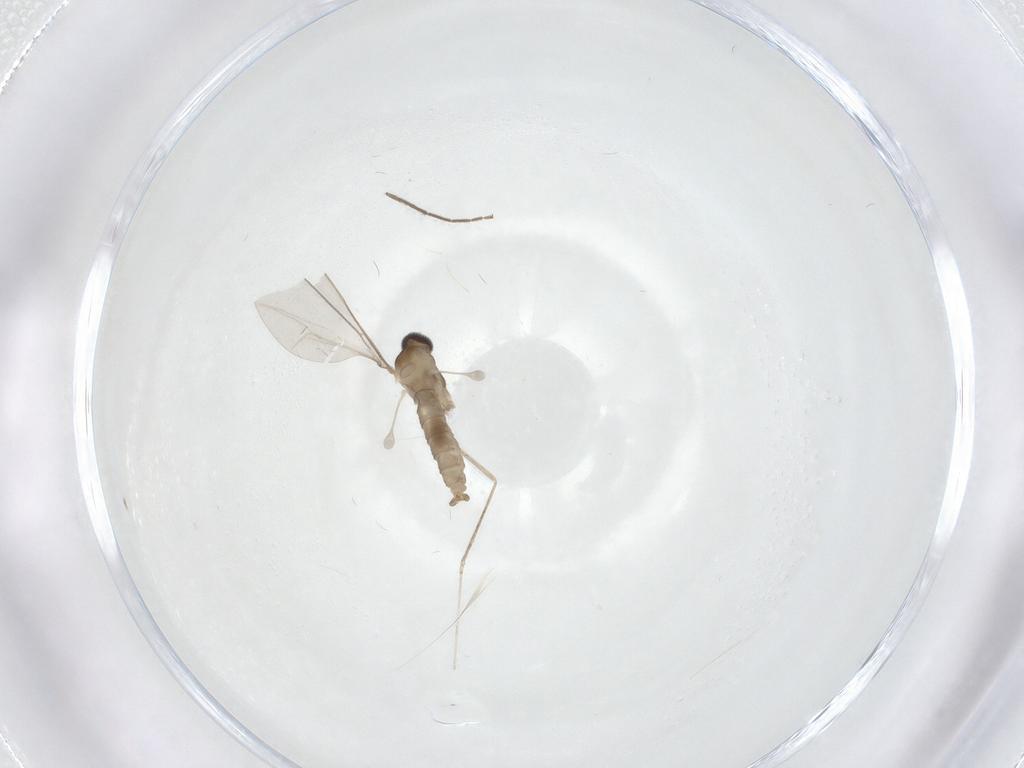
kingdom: Animalia
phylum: Arthropoda
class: Insecta
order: Diptera
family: Cecidomyiidae
